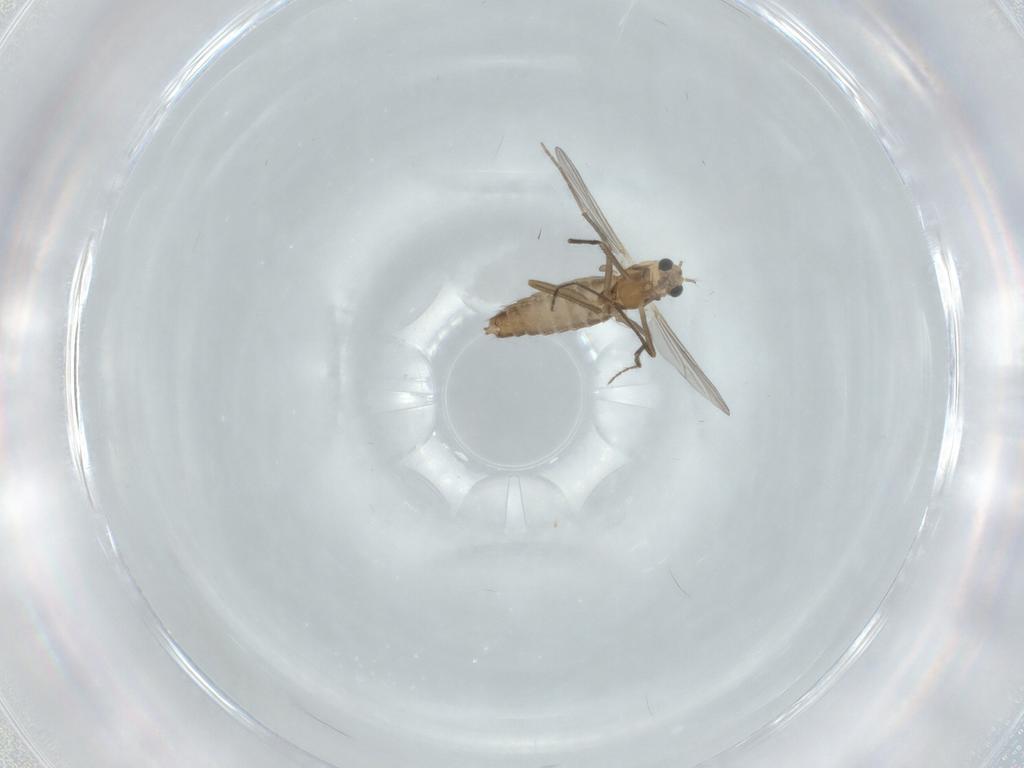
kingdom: Animalia
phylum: Arthropoda
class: Insecta
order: Diptera
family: Chironomidae
